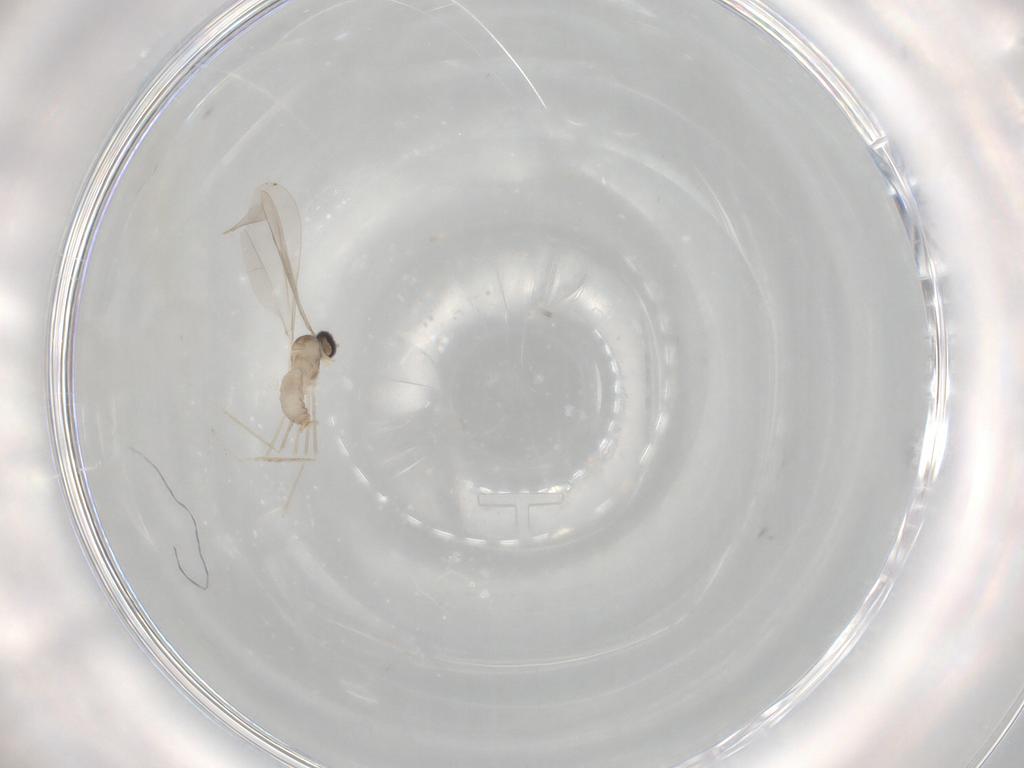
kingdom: Animalia
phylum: Arthropoda
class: Insecta
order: Diptera
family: Cecidomyiidae
